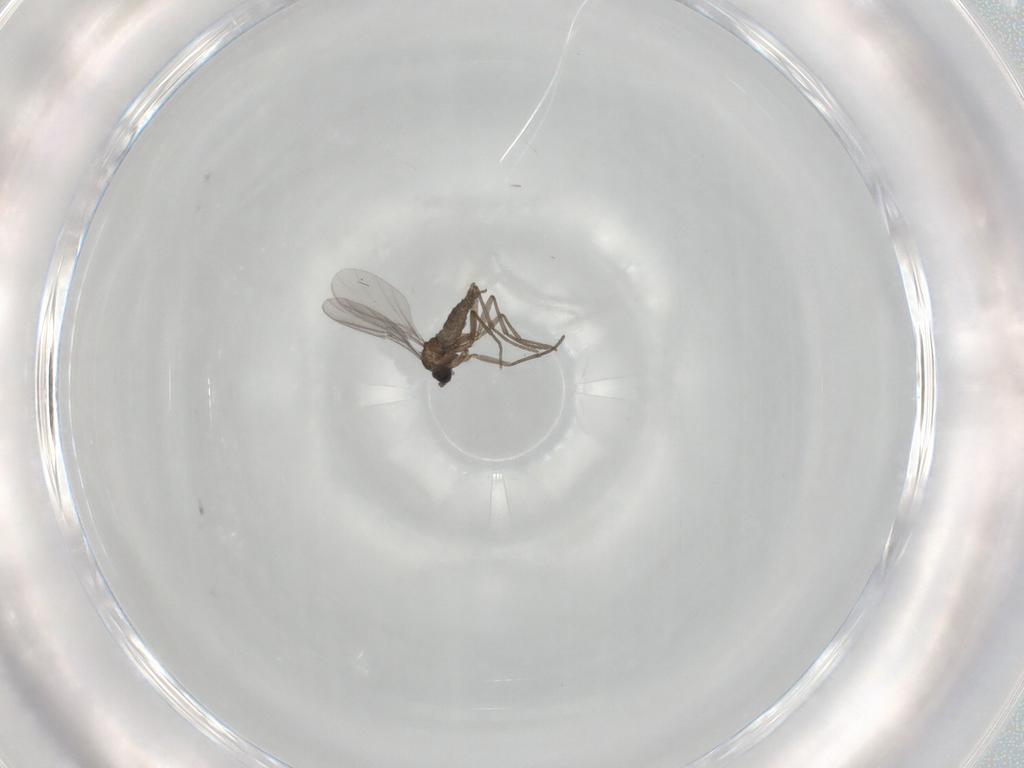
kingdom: Animalia
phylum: Arthropoda
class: Insecta
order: Diptera
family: Sciaridae
